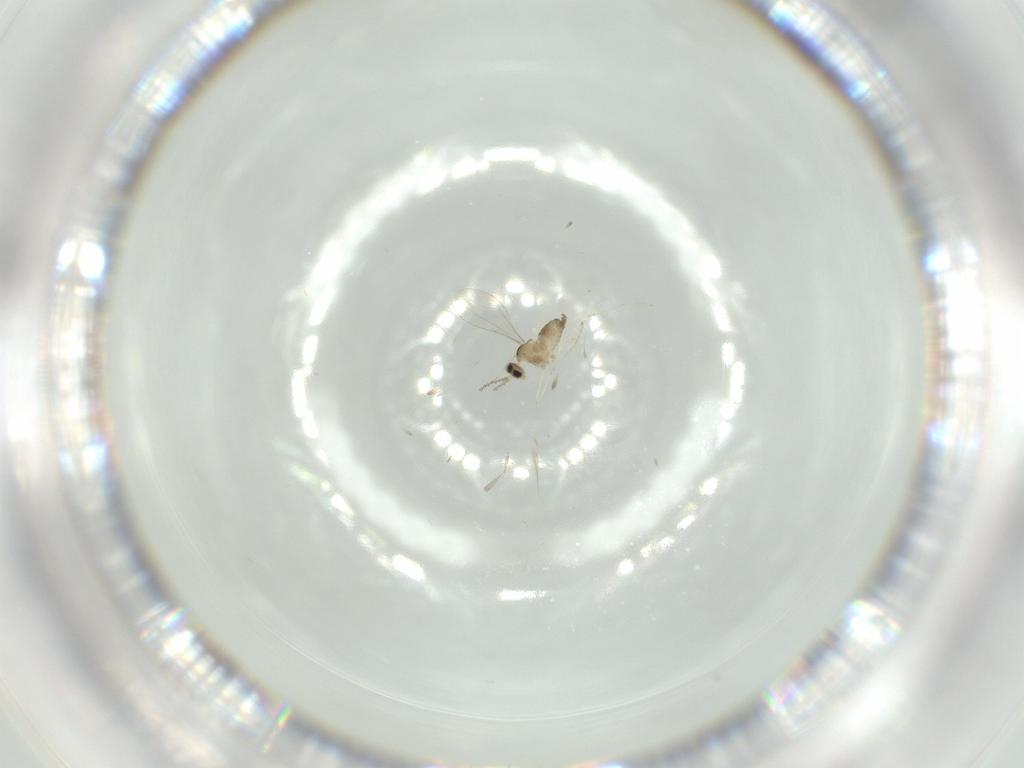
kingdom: Animalia
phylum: Arthropoda
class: Insecta
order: Diptera
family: Cecidomyiidae
